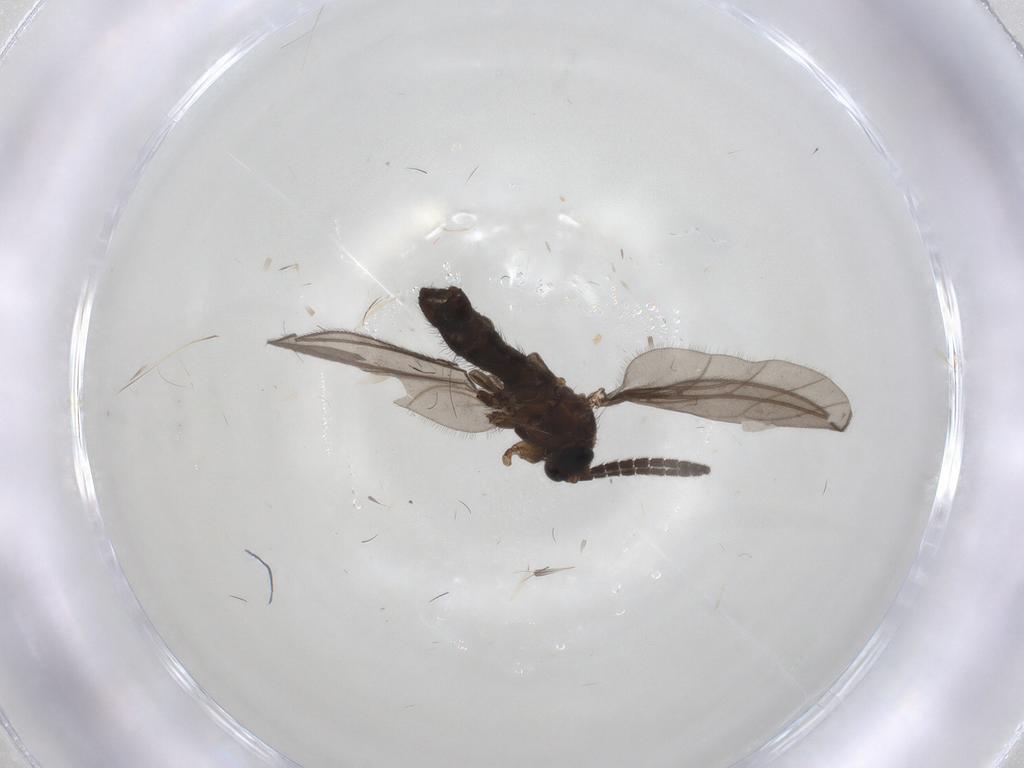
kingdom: Animalia
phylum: Arthropoda
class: Insecta
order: Diptera
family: Sciaridae
